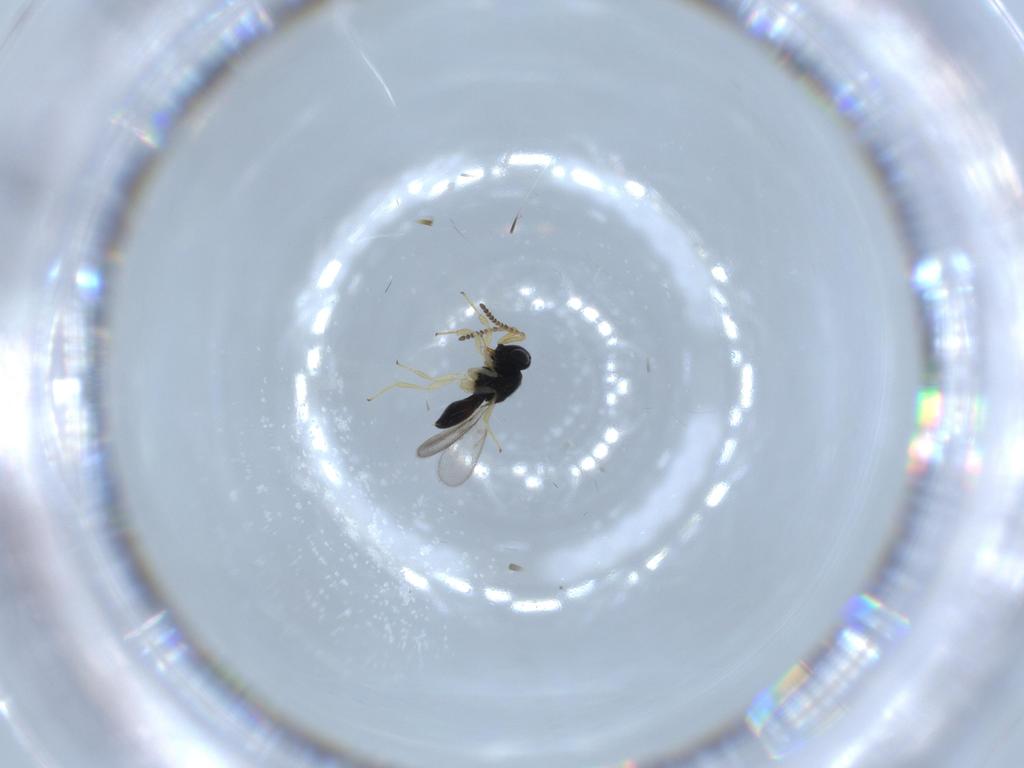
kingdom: Animalia
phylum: Arthropoda
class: Insecta
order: Hymenoptera
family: Scelionidae
